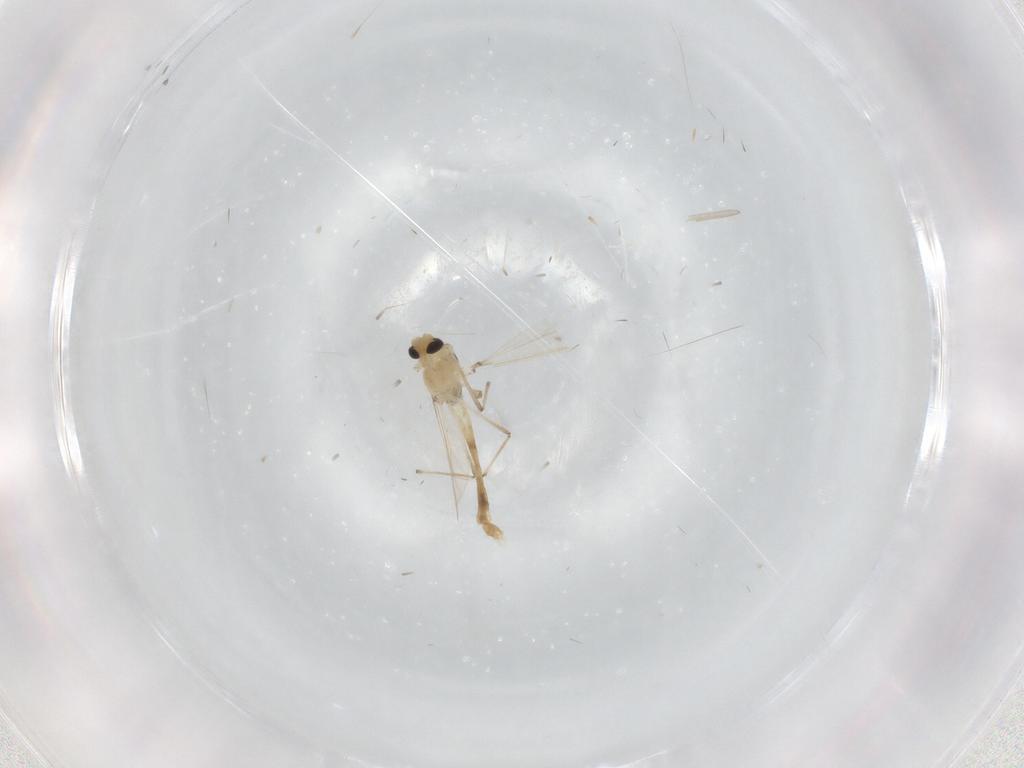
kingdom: Animalia
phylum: Arthropoda
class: Insecta
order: Diptera
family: Chironomidae
